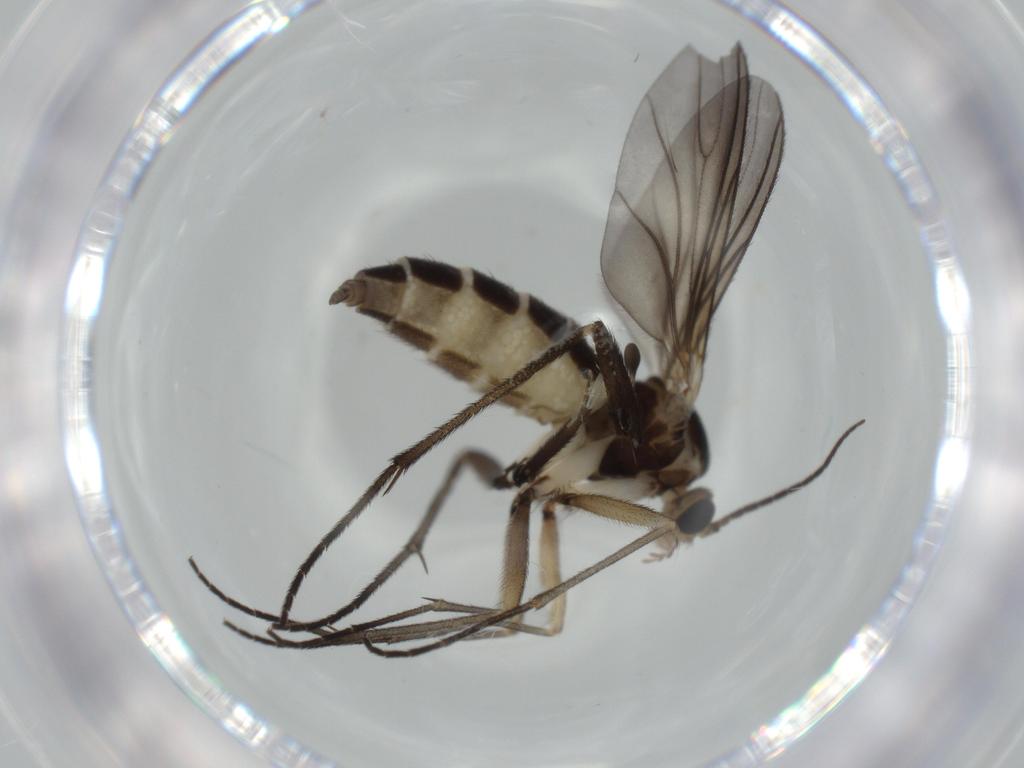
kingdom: Animalia
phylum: Arthropoda
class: Insecta
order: Diptera
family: Sciaridae
